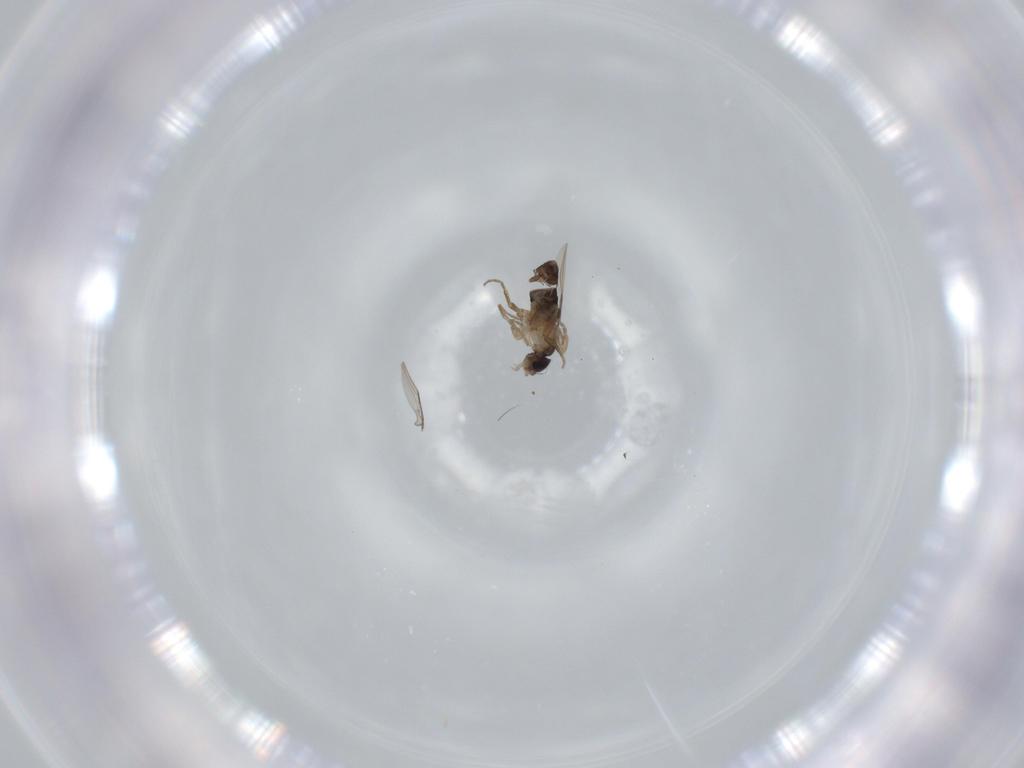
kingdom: Animalia
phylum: Arthropoda
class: Insecta
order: Diptera
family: Phoridae
